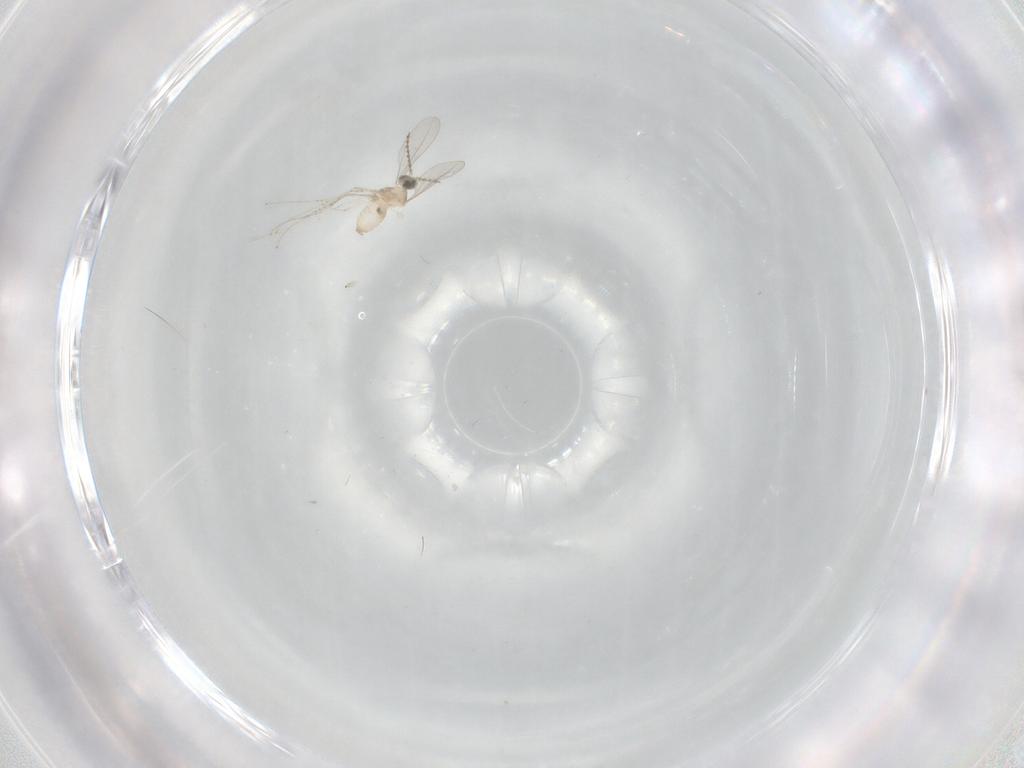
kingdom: Animalia
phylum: Arthropoda
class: Insecta
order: Diptera
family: Cecidomyiidae
